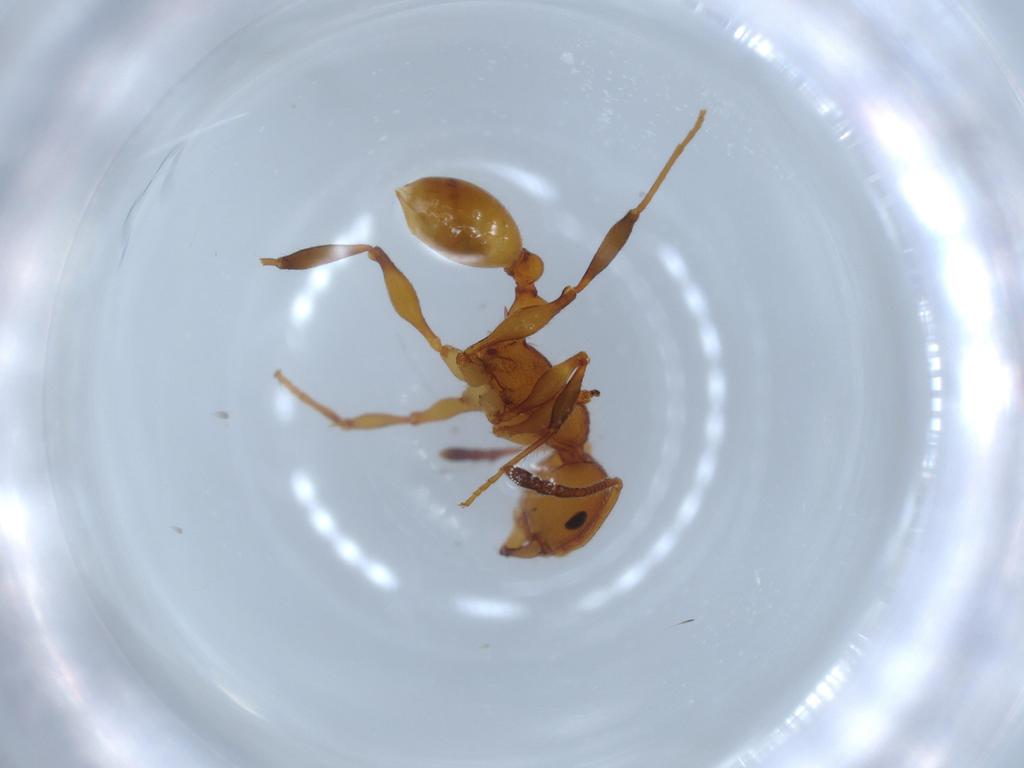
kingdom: Animalia
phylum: Arthropoda
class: Insecta
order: Hymenoptera
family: Formicidae
